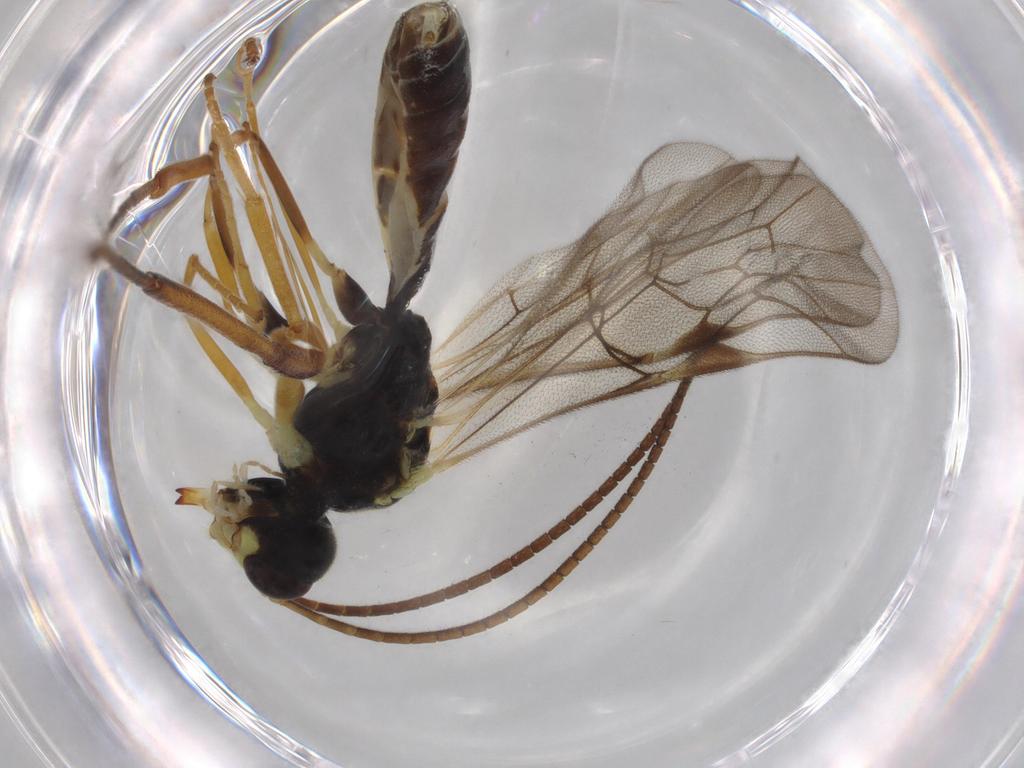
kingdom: Animalia
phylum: Arthropoda
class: Insecta
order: Hymenoptera
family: Ichneumonidae
